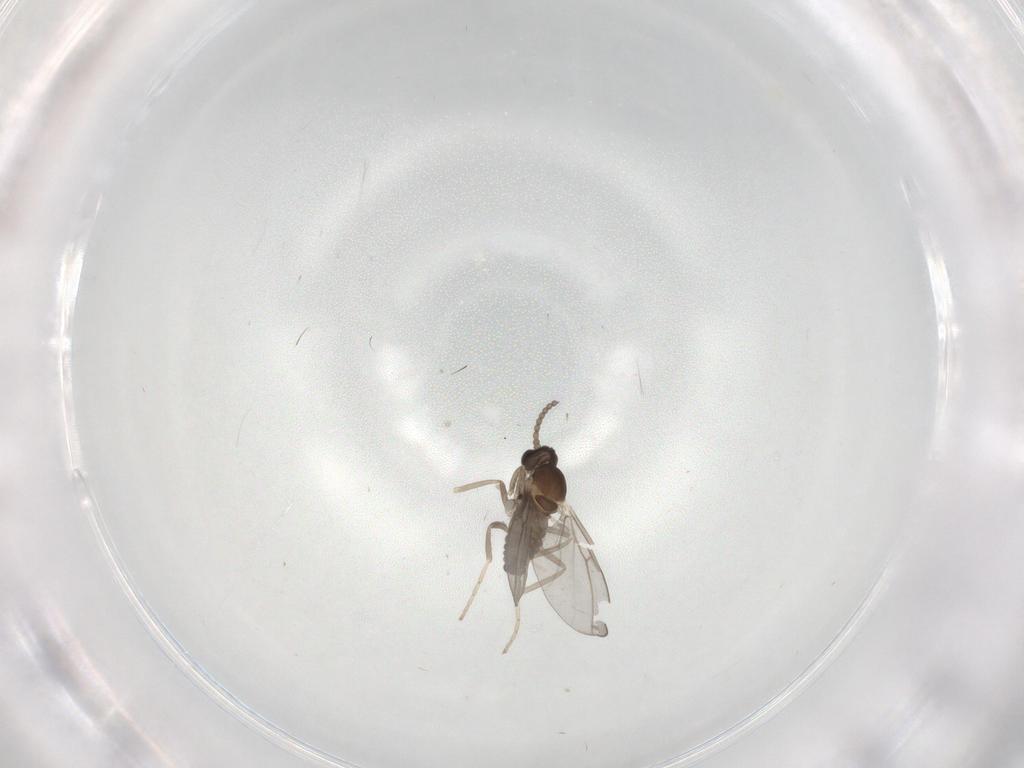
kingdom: Animalia
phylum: Arthropoda
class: Insecta
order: Diptera
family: Cecidomyiidae
